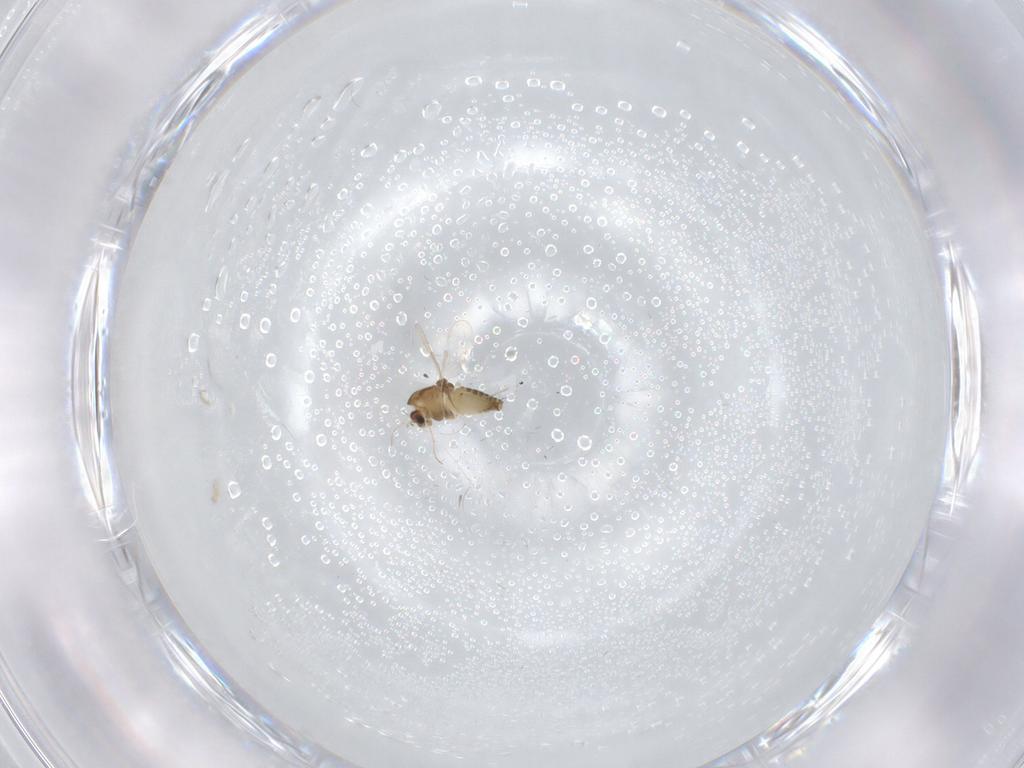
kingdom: Animalia
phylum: Arthropoda
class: Insecta
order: Diptera
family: Chironomidae
